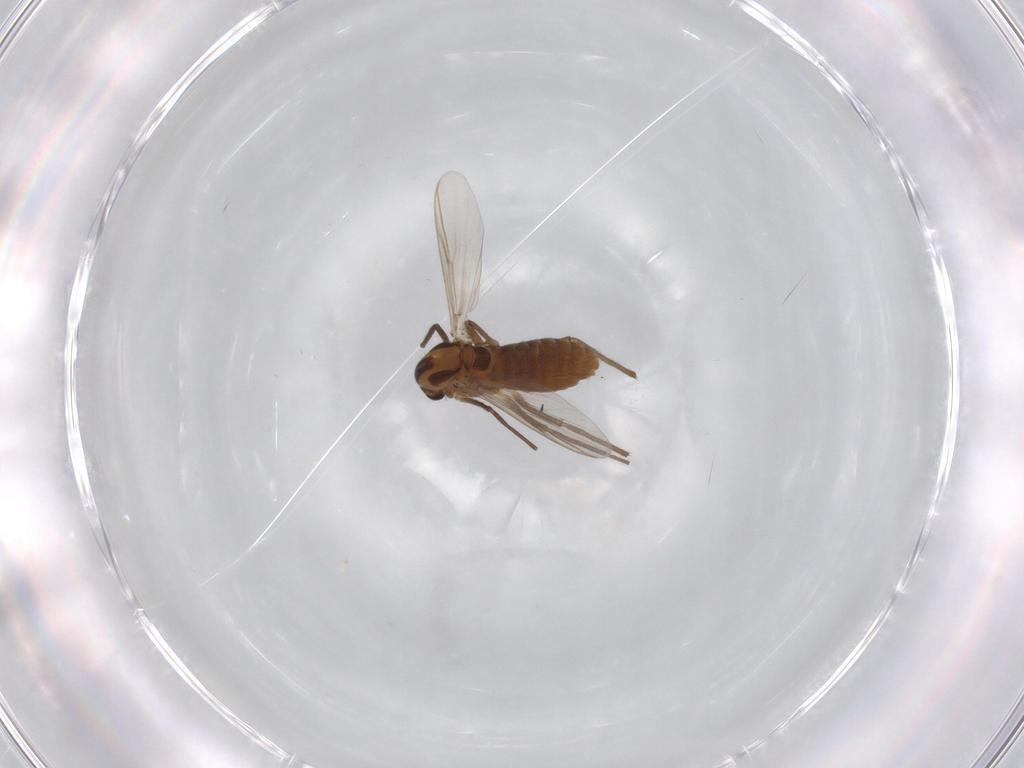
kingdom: Animalia
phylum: Arthropoda
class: Insecta
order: Diptera
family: Chironomidae
